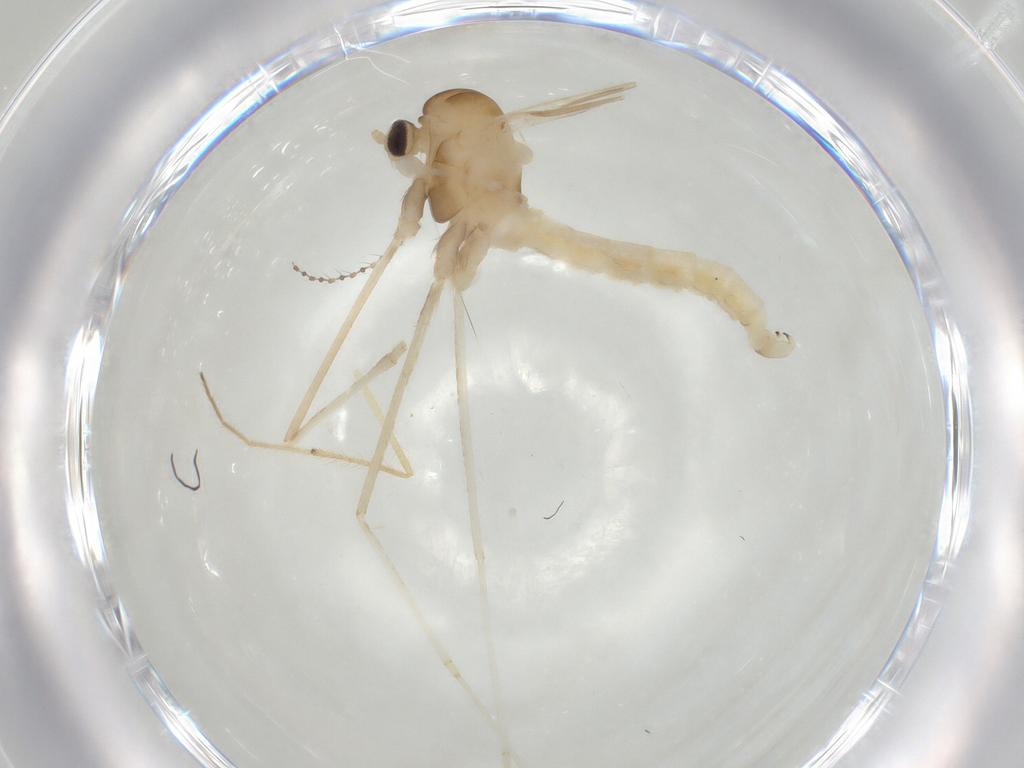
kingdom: Animalia
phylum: Arthropoda
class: Insecta
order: Diptera
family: Cecidomyiidae
